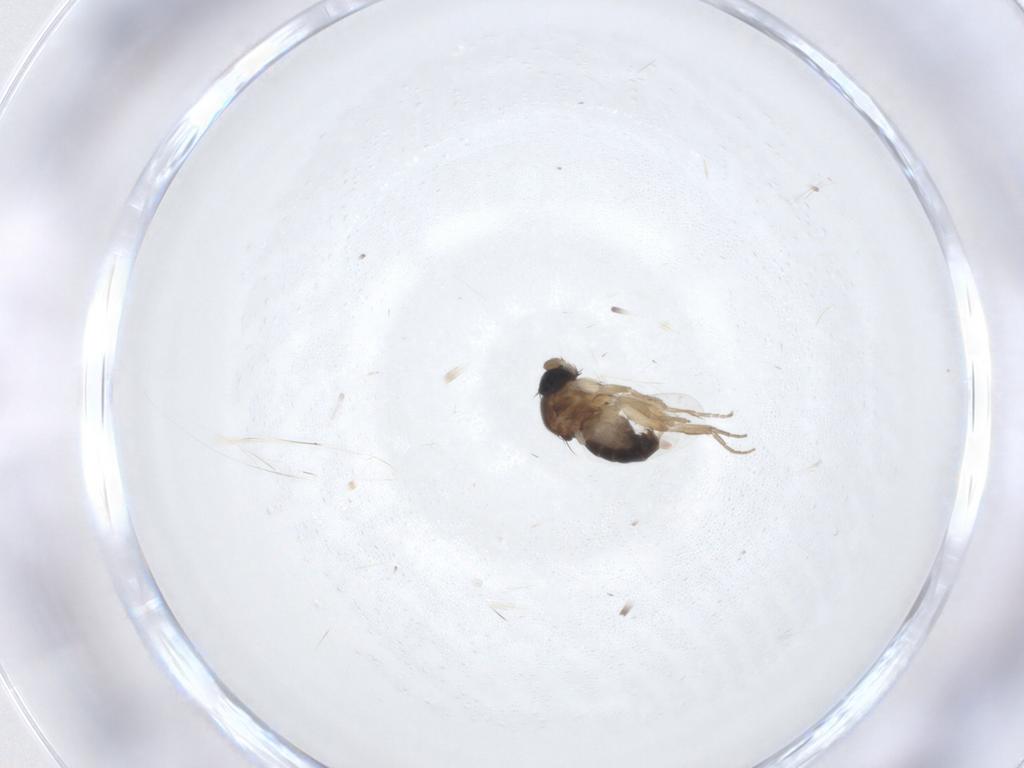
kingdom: Animalia
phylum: Arthropoda
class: Insecta
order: Diptera
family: Phoridae
